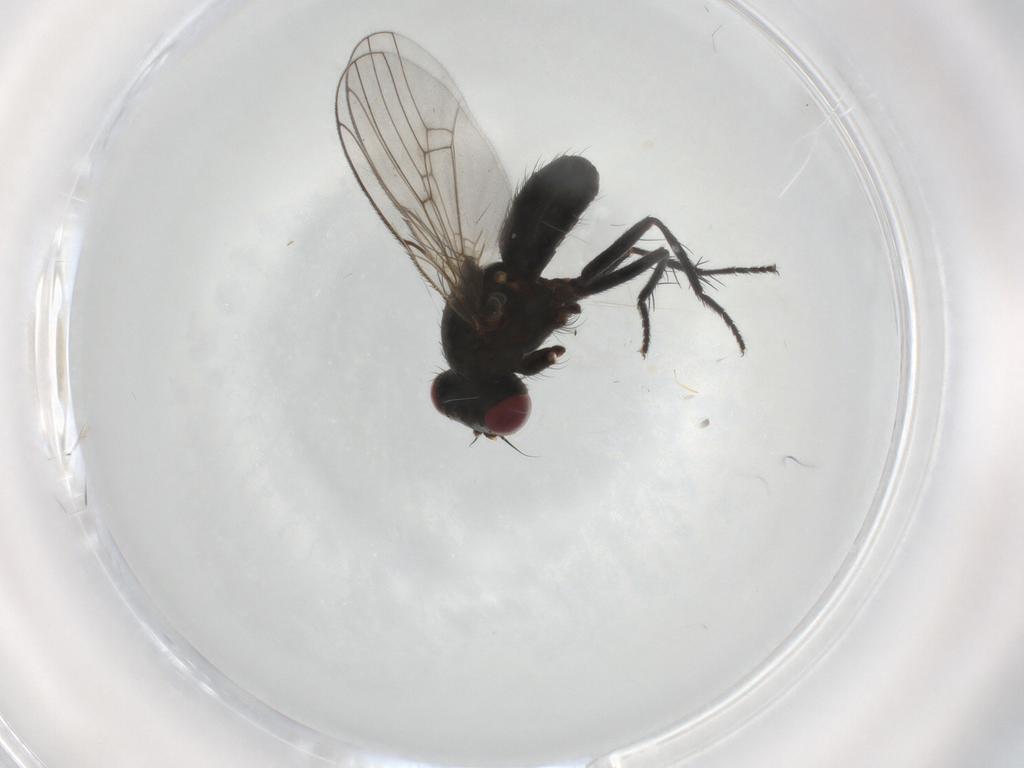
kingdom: Animalia
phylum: Arthropoda
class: Insecta
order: Diptera
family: Muscidae
